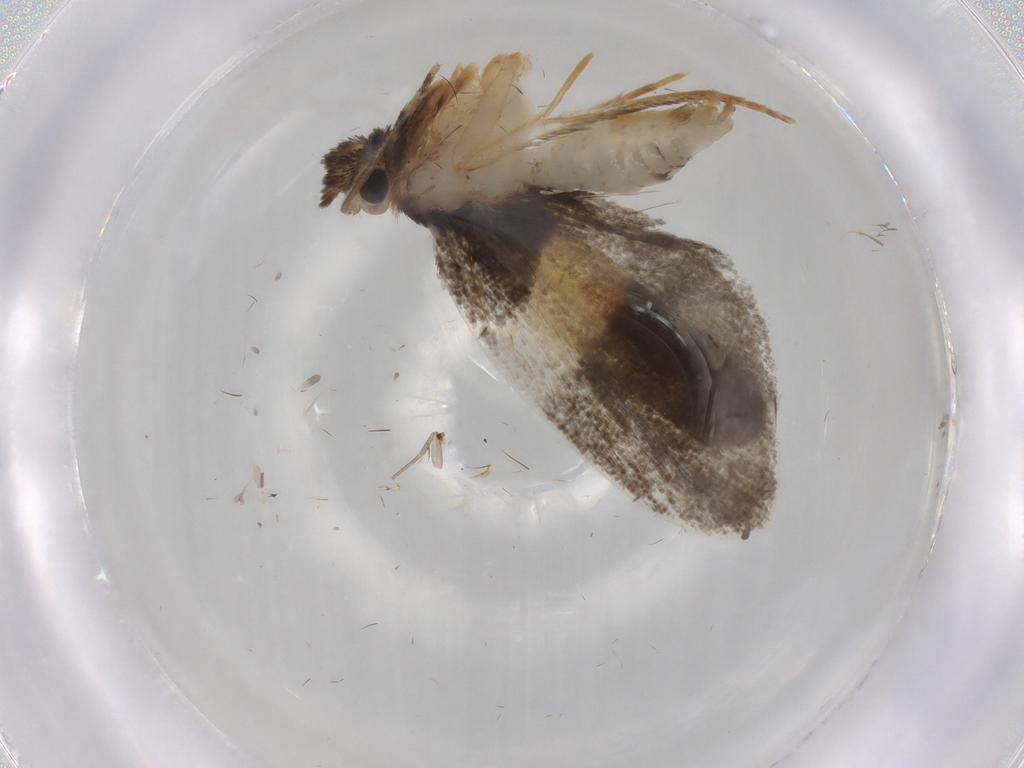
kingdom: Animalia
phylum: Arthropoda
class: Insecta
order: Lepidoptera
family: Psychidae
